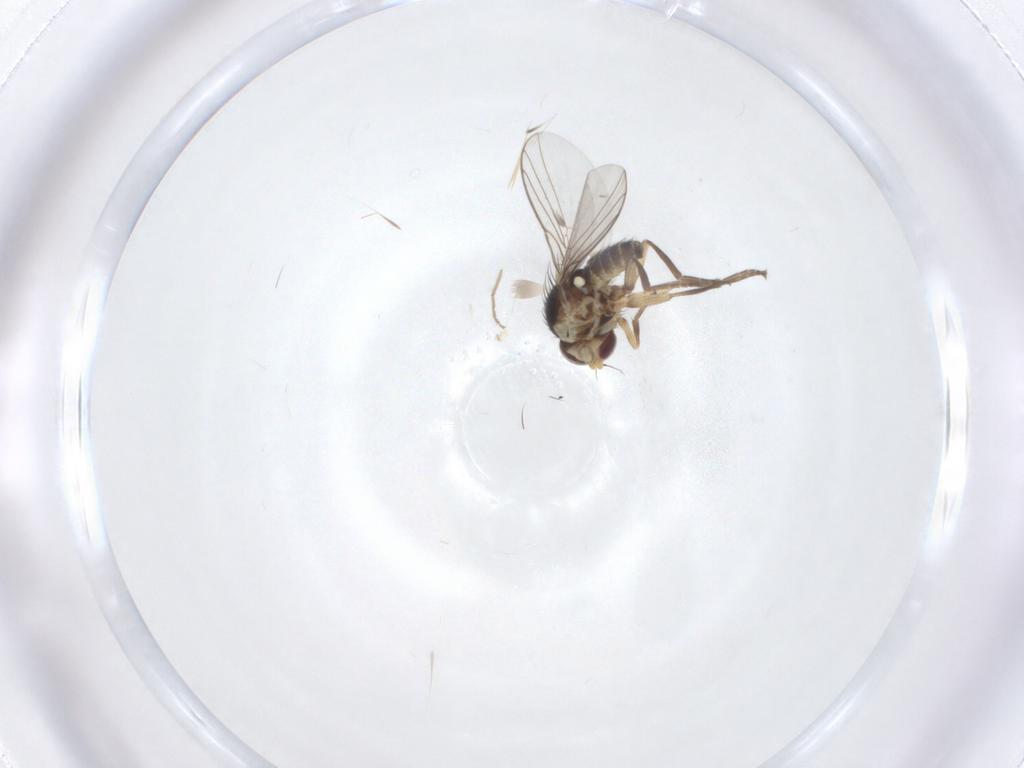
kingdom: Animalia
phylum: Arthropoda
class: Insecta
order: Diptera
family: Agromyzidae
